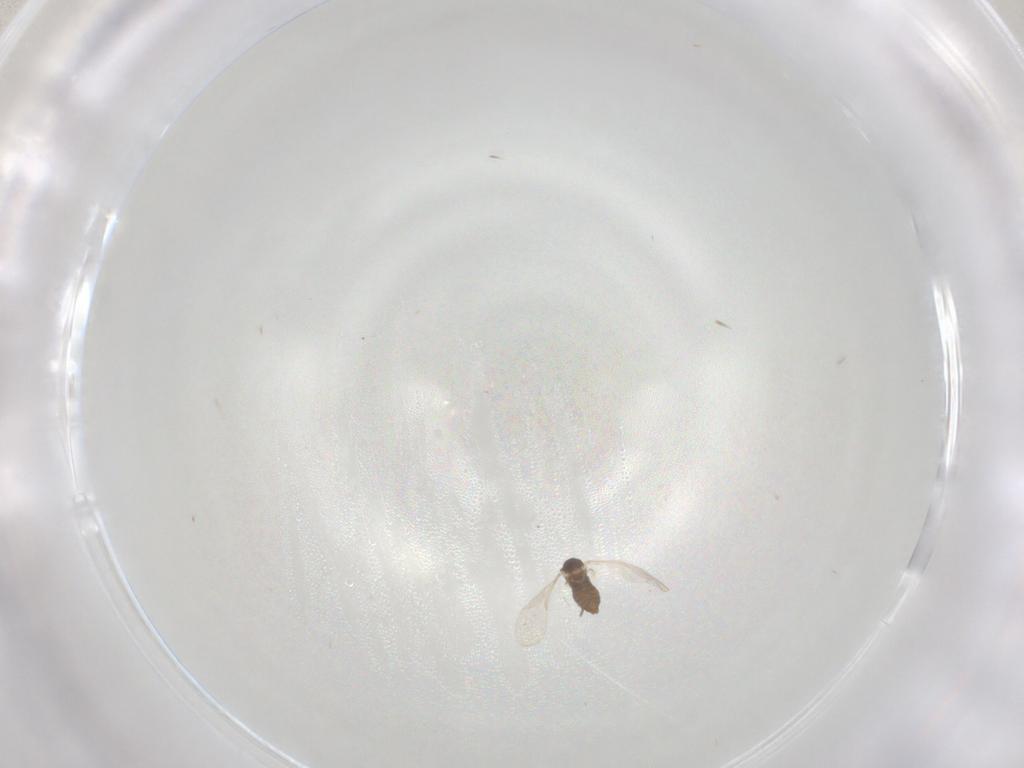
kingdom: Animalia
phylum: Arthropoda
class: Insecta
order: Diptera
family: Cecidomyiidae
